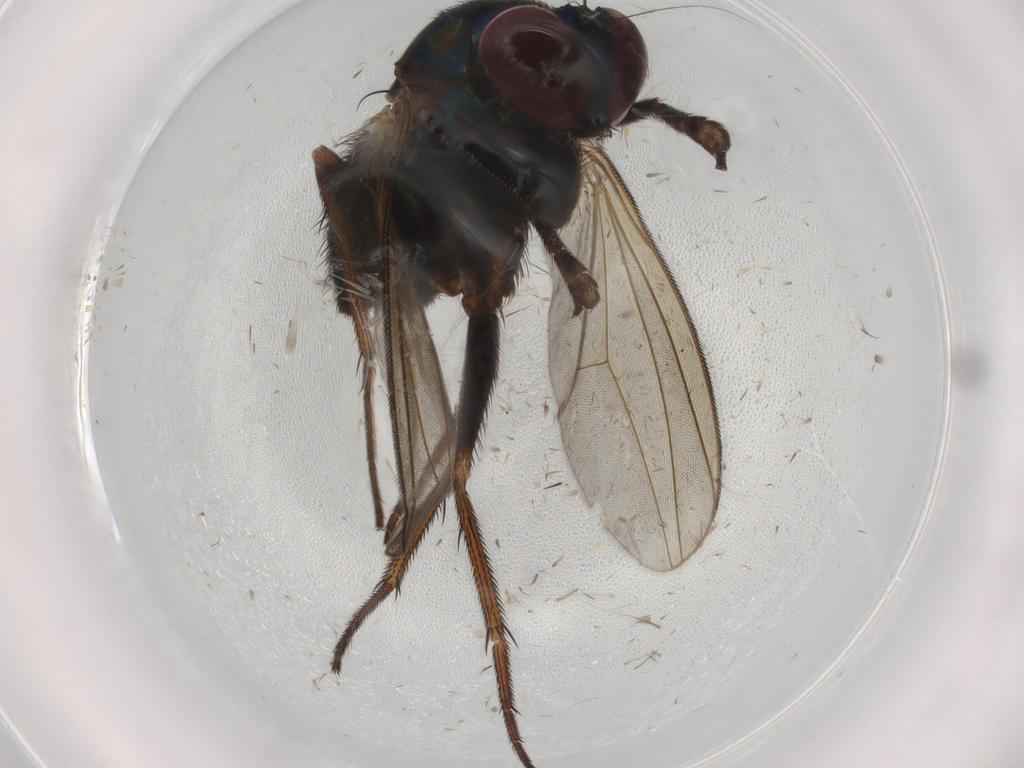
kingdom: Animalia
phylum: Arthropoda
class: Insecta
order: Diptera
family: Dolichopodidae
